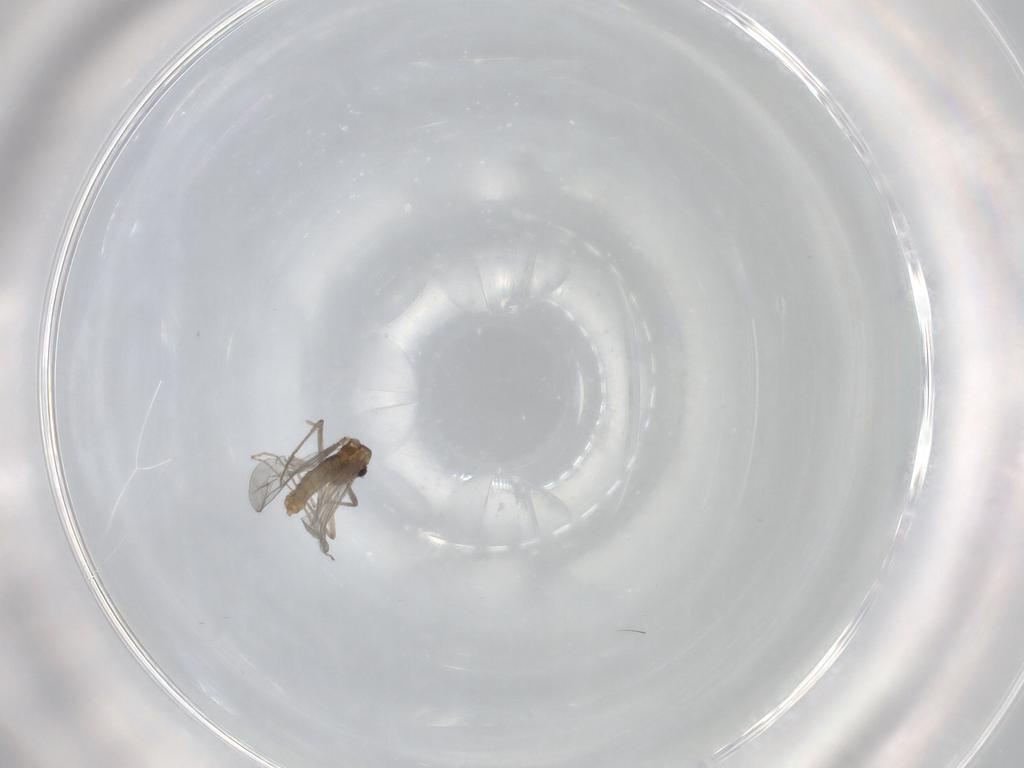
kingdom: Animalia
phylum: Arthropoda
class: Insecta
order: Diptera
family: Chironomidae
